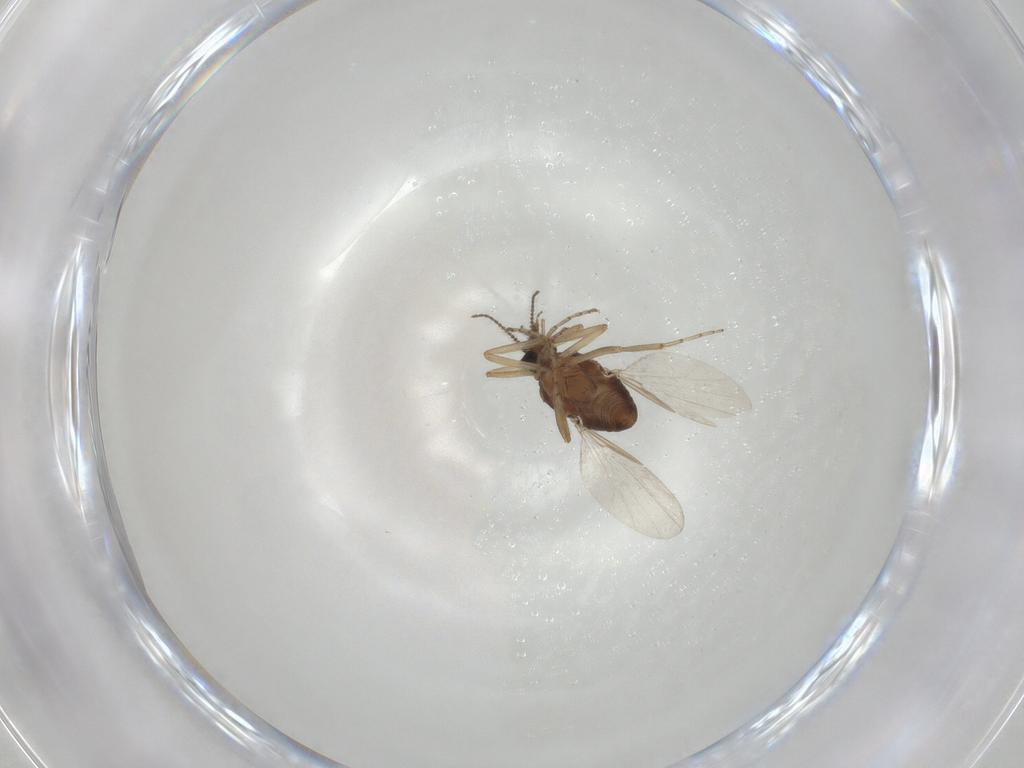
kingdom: Animalia
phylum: Arthropoda
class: Insecta
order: Diptera
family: Ceratopogonidae
